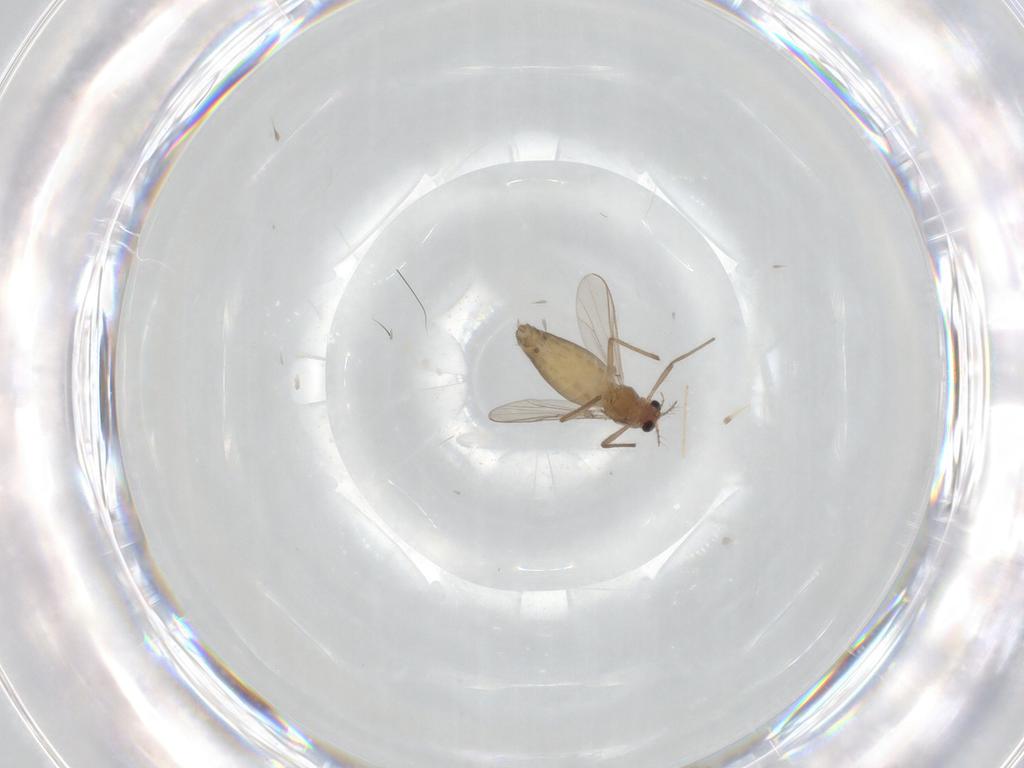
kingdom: Animalia
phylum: Arthropoda
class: Insecta
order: Diptera
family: Chironomidae
